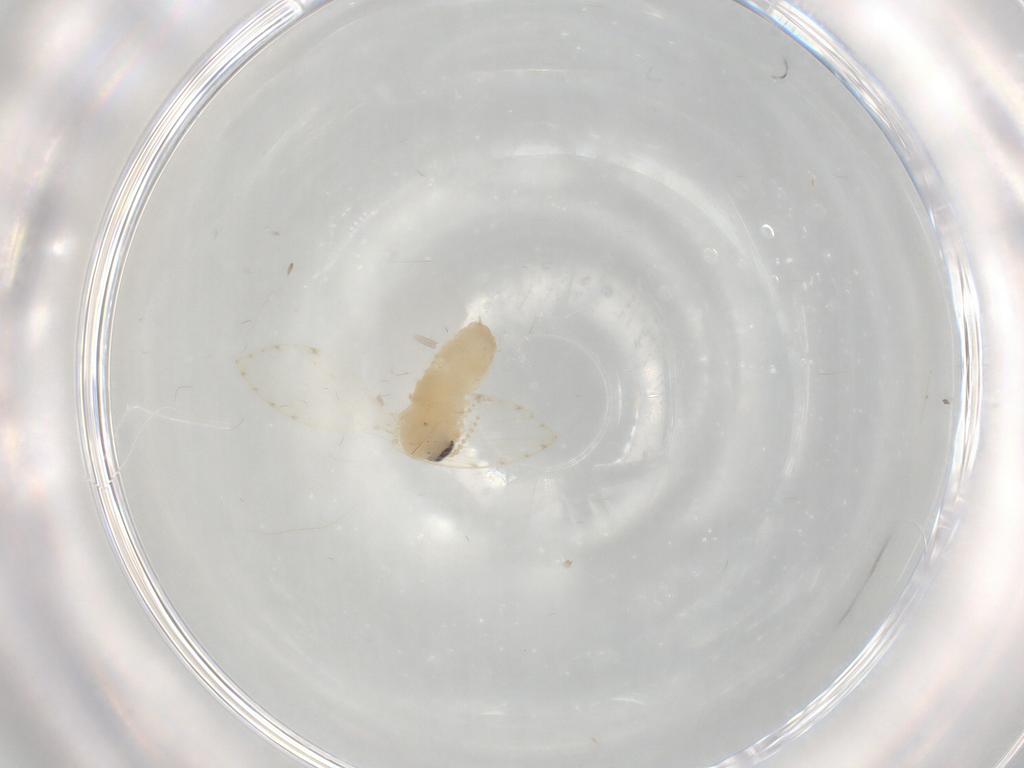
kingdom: Animalia
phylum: Arthropoda
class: Insecta
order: Diptera
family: Psychodidae
